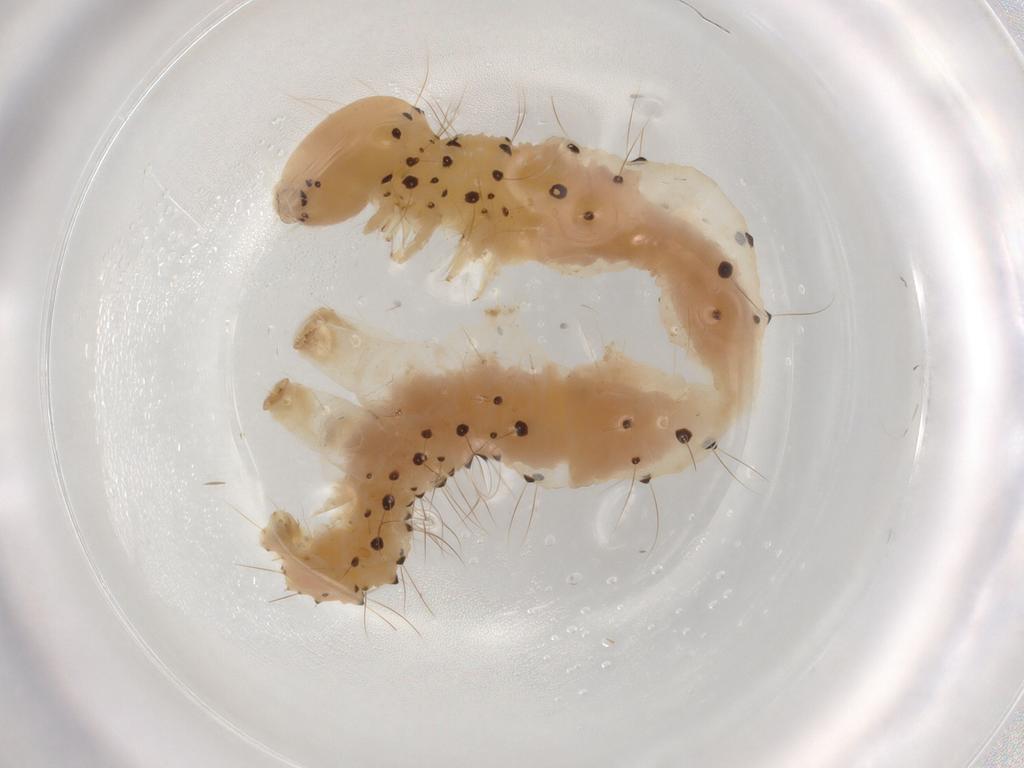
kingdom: Animalia
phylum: Arthropoda
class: Insecta
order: Lepidoptera
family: Erebidae
